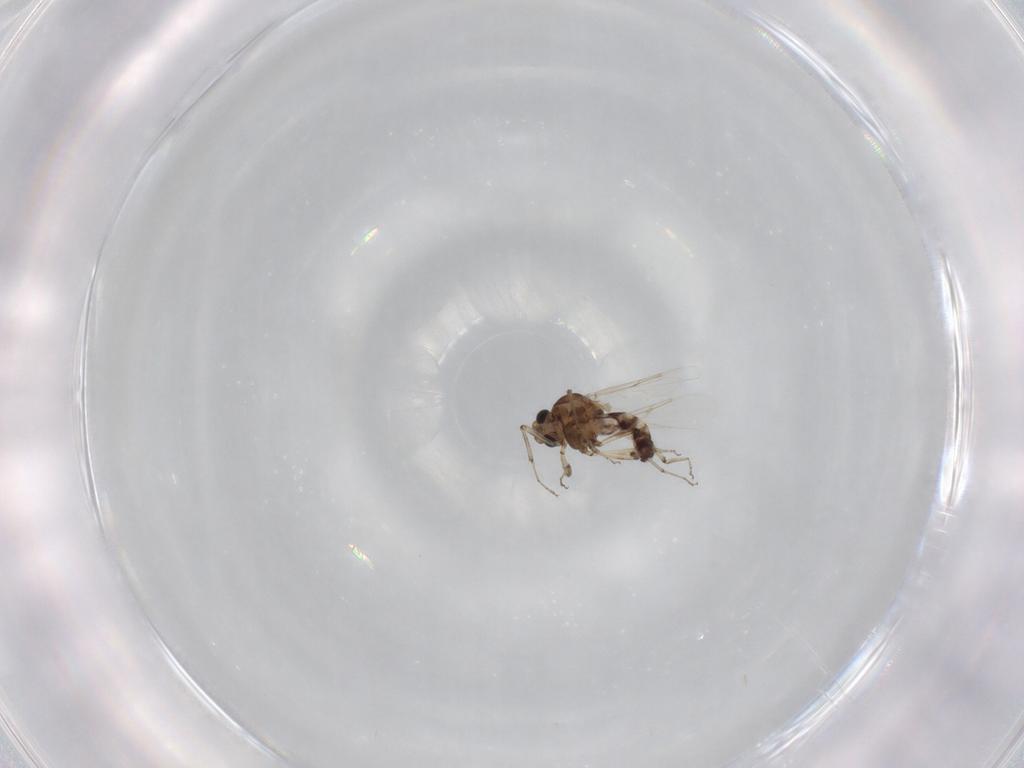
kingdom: Animalia
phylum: Arthropoda
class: Insecta
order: Diptera
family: Ceratopogonidae
